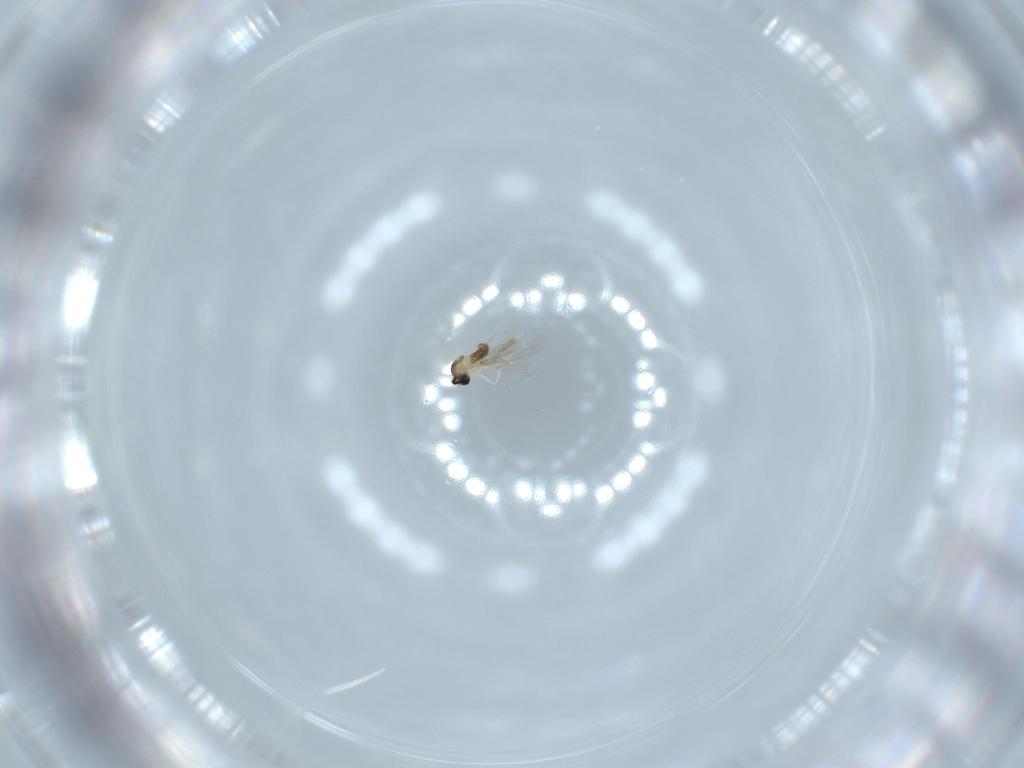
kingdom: Animalia
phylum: Arthropoda
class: Insecta
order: Diptera
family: Cecidomyiidae
